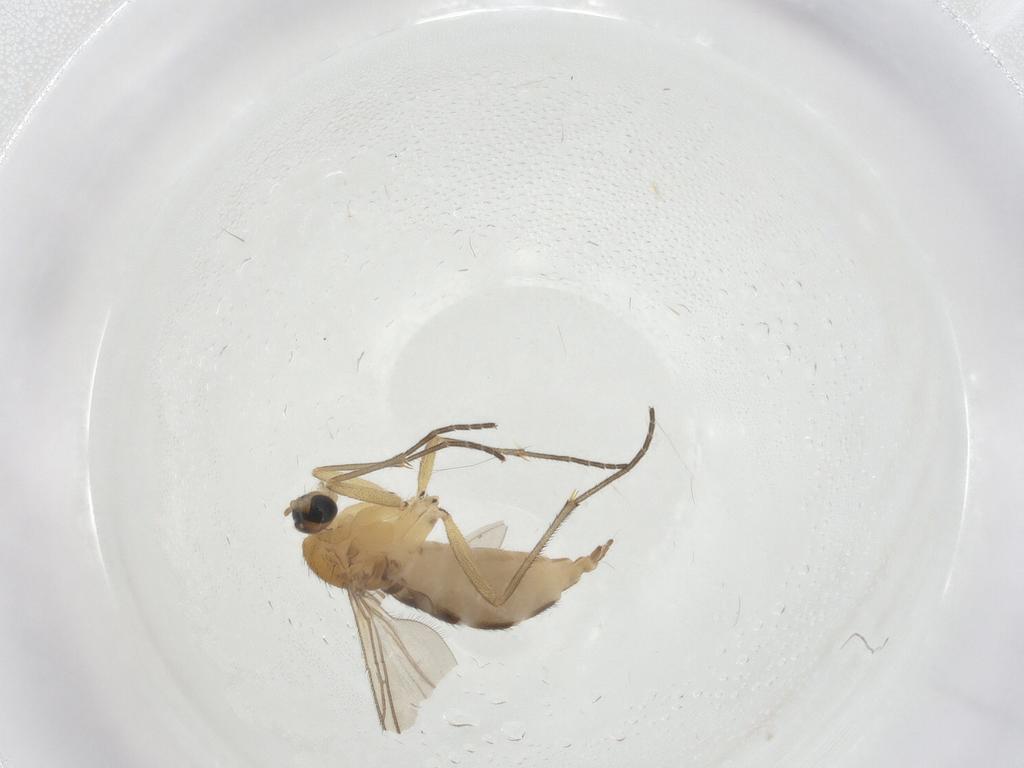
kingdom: Animalia
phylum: Arthropoda
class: Insecta
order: Diptera
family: Sciaridae
